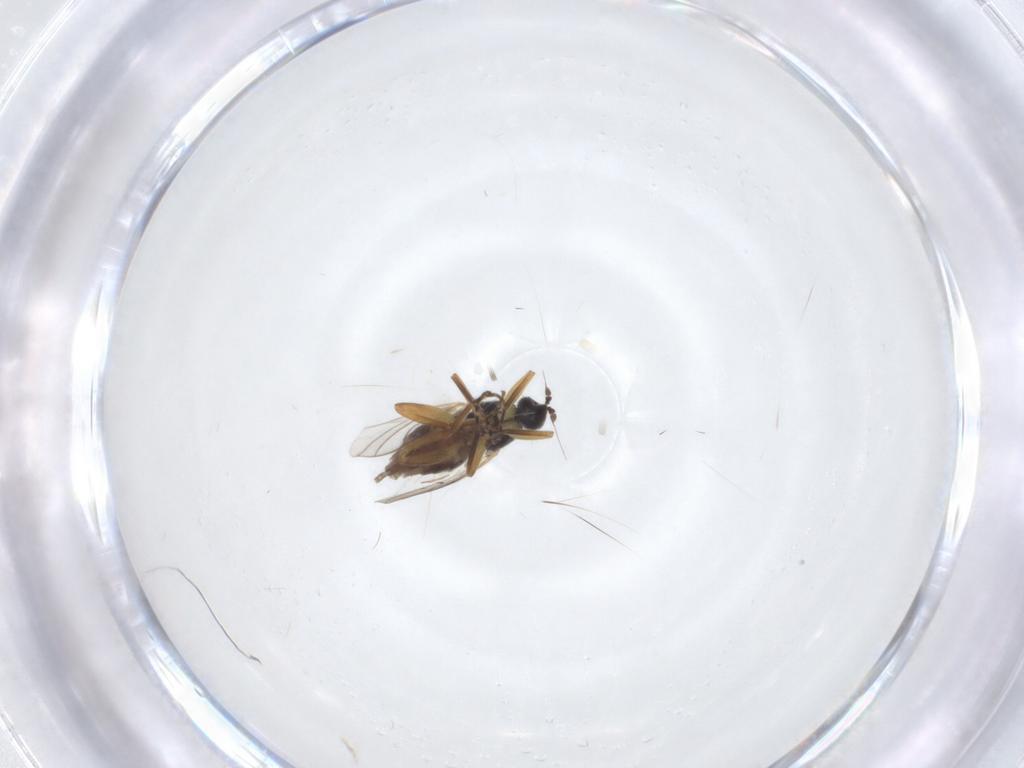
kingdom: Animalia
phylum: Arthropoda
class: Insecta
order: Diptera
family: Hybotidae
